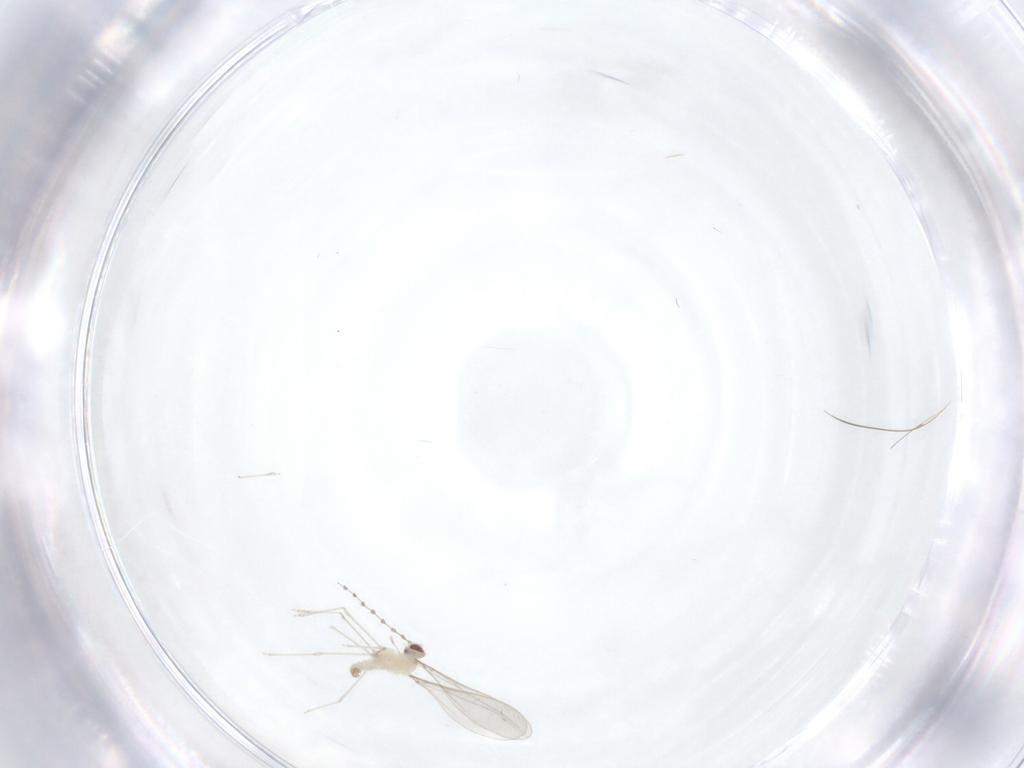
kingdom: Animalia
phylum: Arthropoda
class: Insecta
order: Diptera
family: Cecidomyiidae
